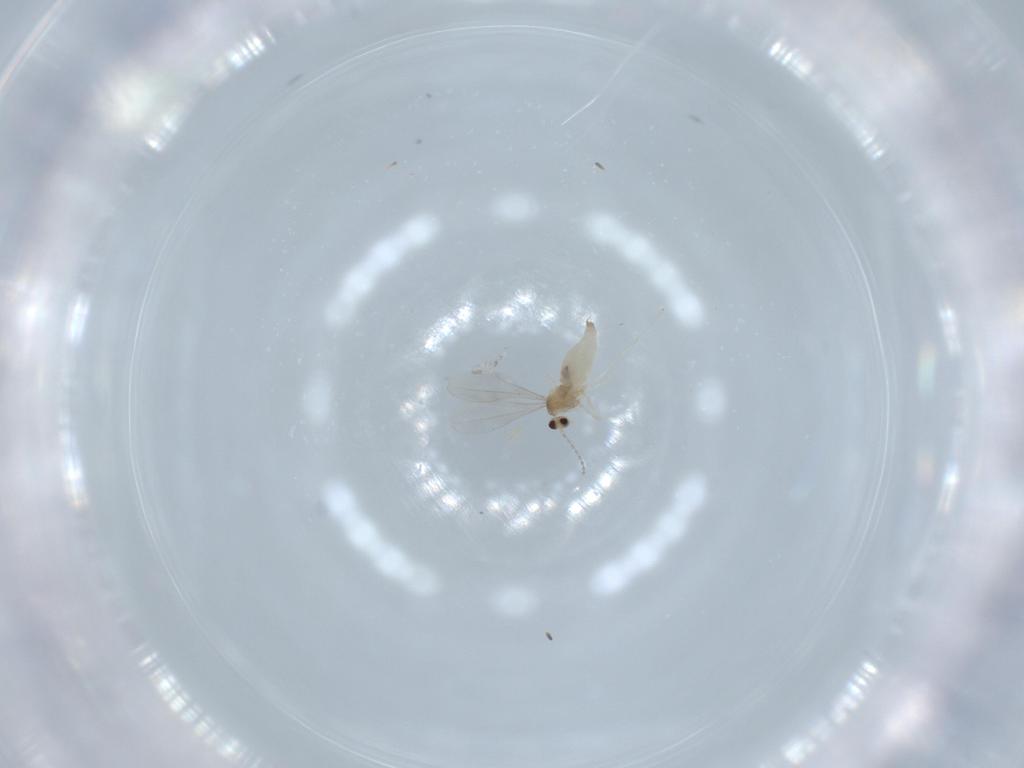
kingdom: Animalia
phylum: Arthropoda
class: Insecta
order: Diptera
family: Cecidomyiidae
